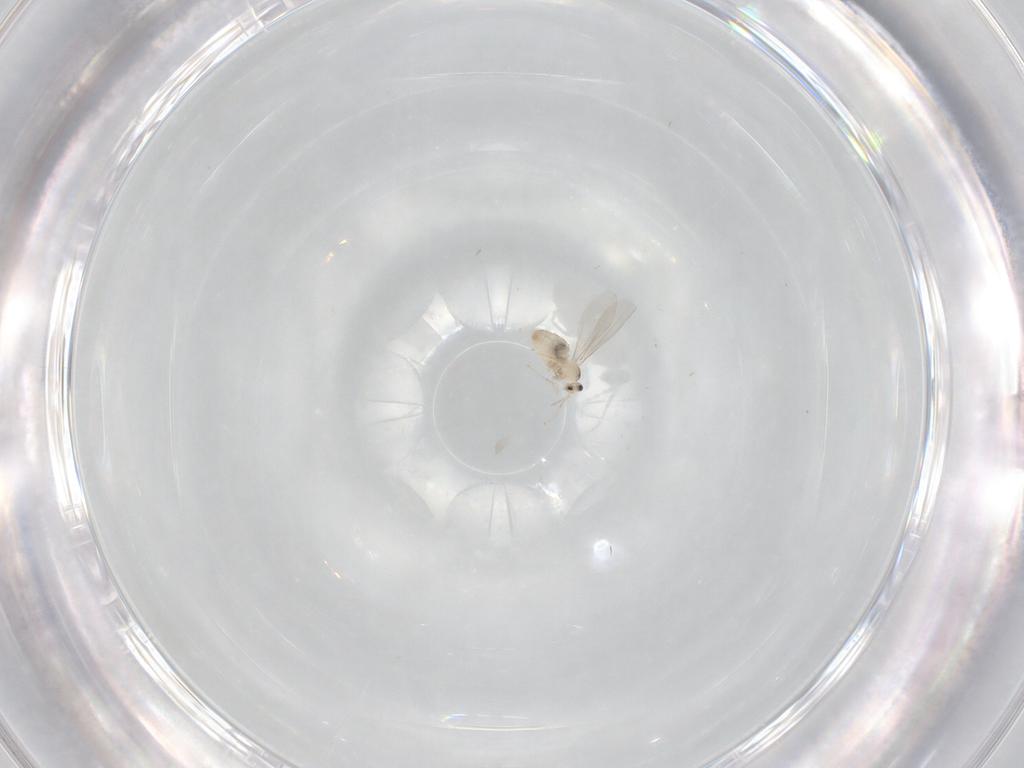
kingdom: Animalia
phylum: Arthropoda
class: Insecta
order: Diptera
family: Cecidomyiidae
